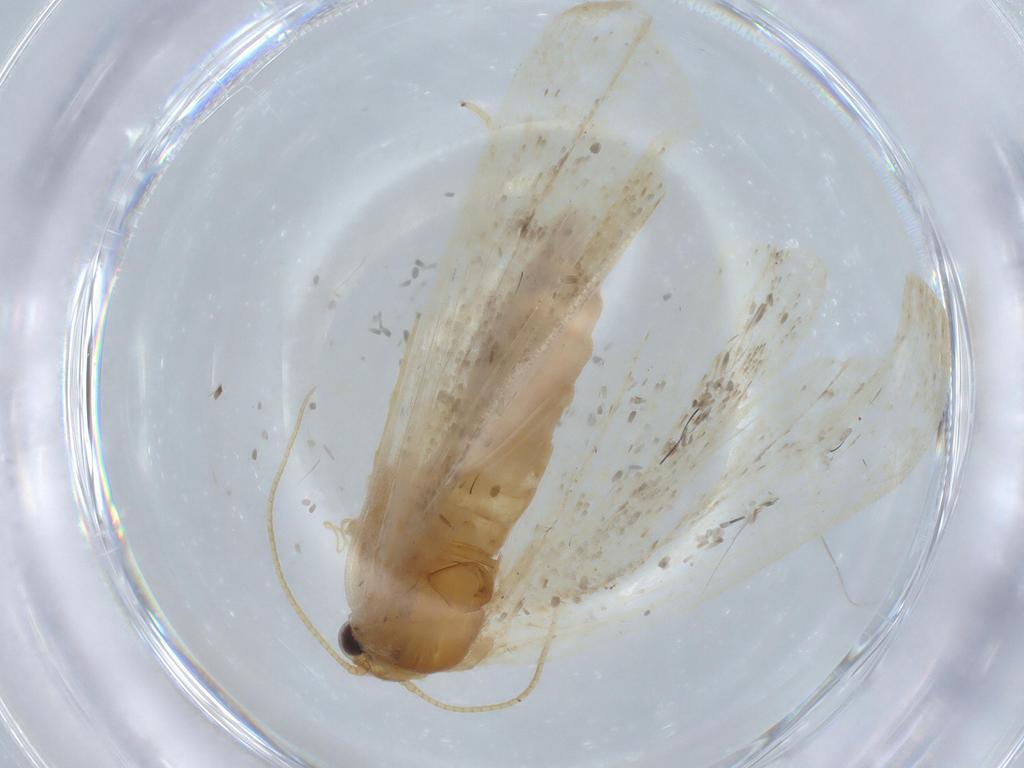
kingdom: Animalia
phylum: Arthropoda
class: Insecta
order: Lepidoptera
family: Geometridae
